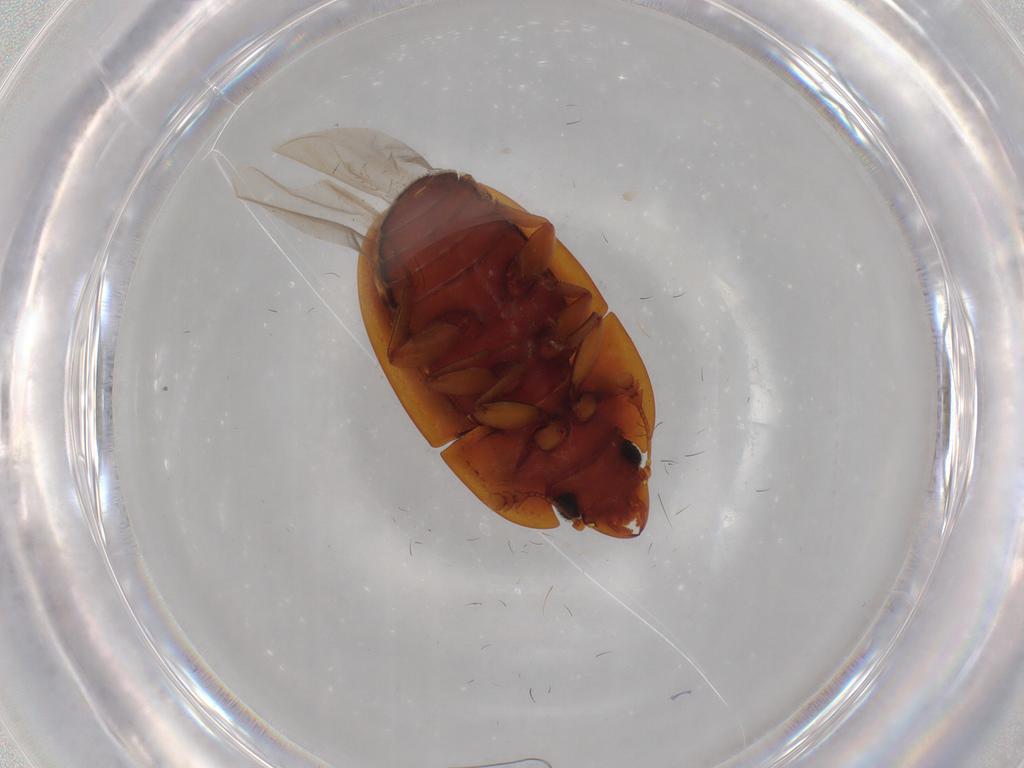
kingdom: Animalia
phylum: Arthropoda
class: Insecta
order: Coleoptera
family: Nitidulidae
